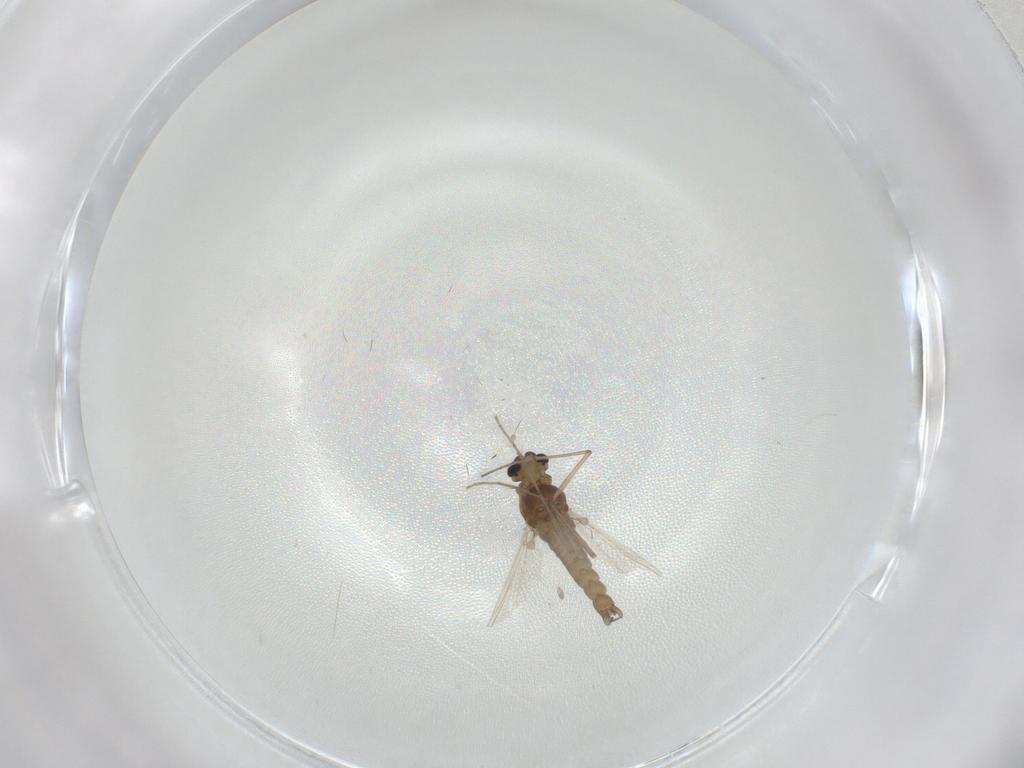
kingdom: Animalia
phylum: Arthropoda
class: Insecta
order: Diptera
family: Chironomidae
